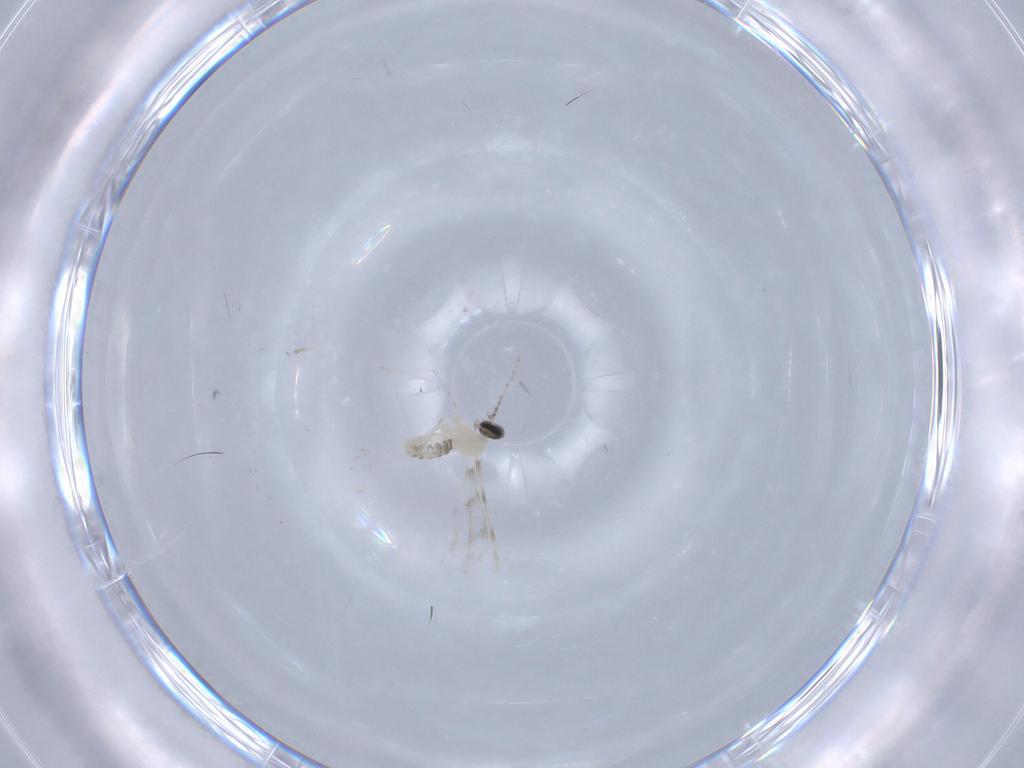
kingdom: Animalia
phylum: Arthropoda
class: Insecta
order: Diptera
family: Cecidomyiidae
